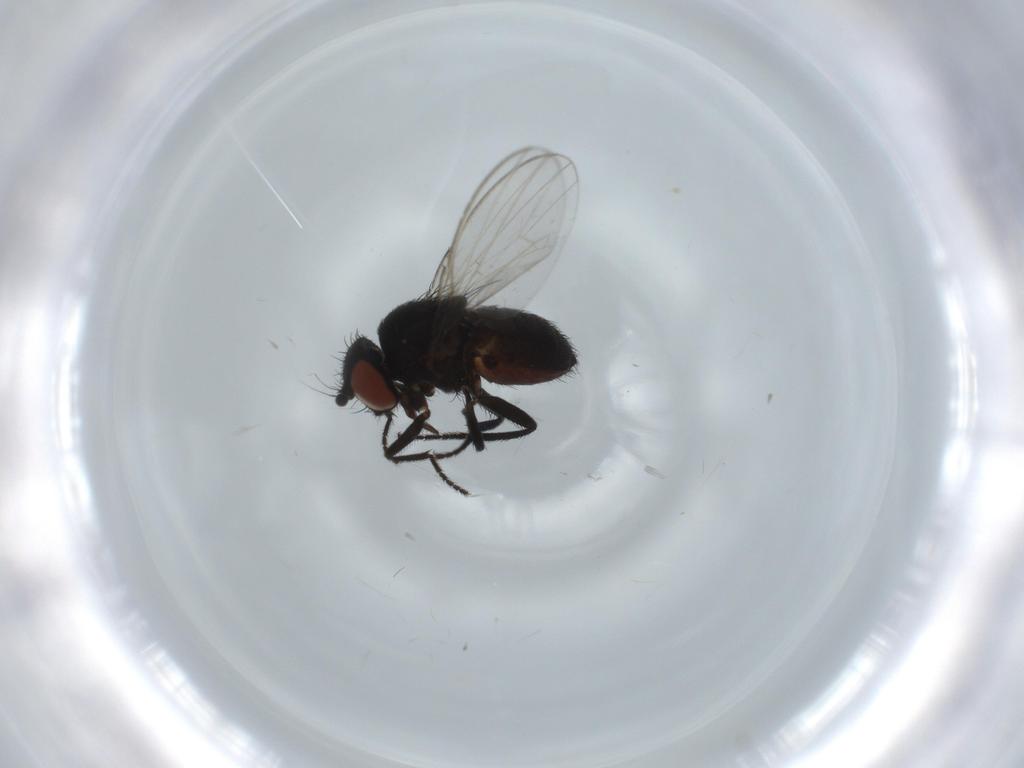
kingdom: Animalia
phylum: Arthropoda
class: Insecta
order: Diptera
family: Milichiidae
